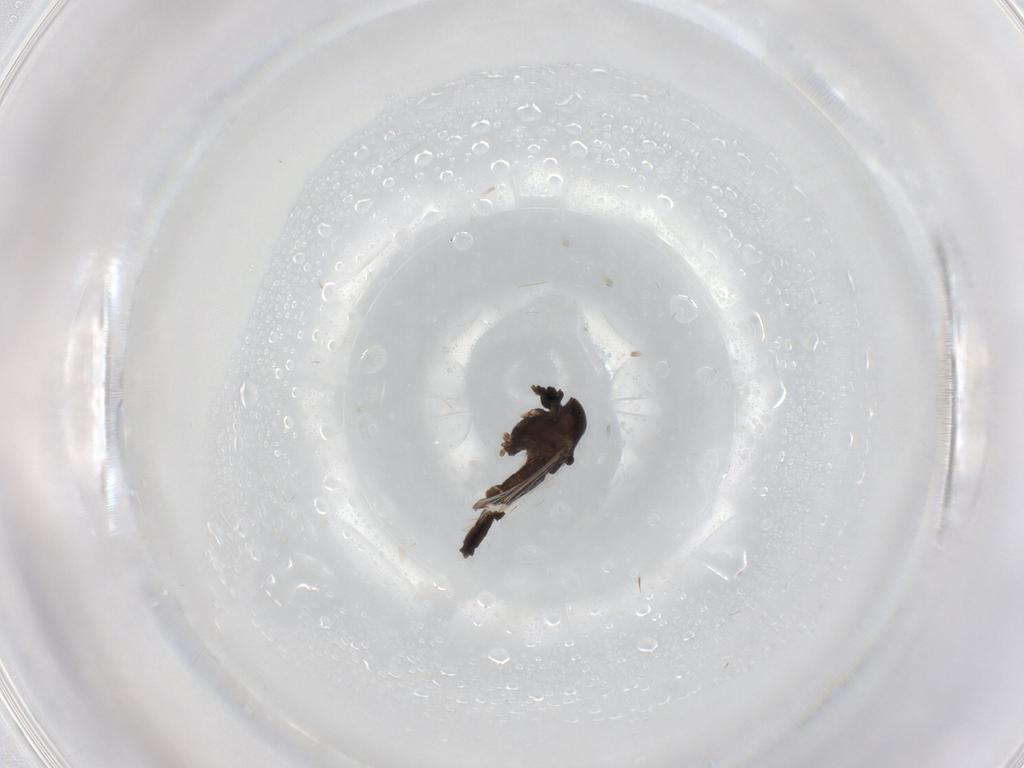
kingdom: Animalia
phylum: Arthropoda
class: Insecta
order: Diptera
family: Chironomidae
